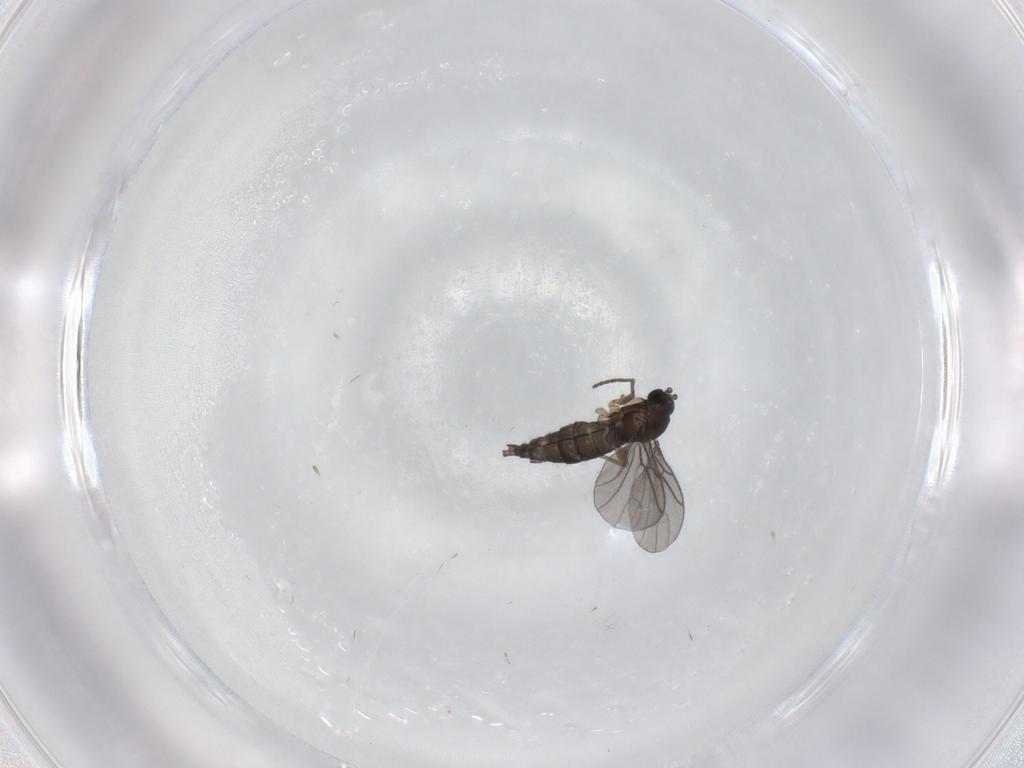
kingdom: Animalia
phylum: Arthropoda
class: Insecta
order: Diptera
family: Sciaridae
